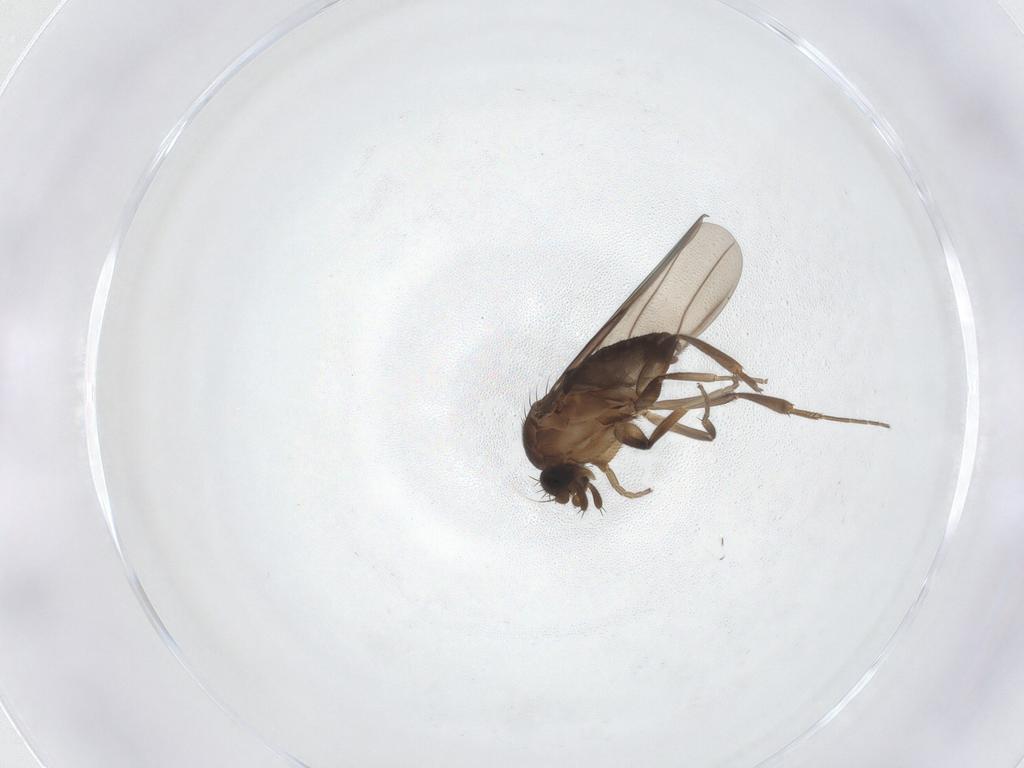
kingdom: Animalia
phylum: Arthropoda
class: Insecta
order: Diptera
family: Phoridae
